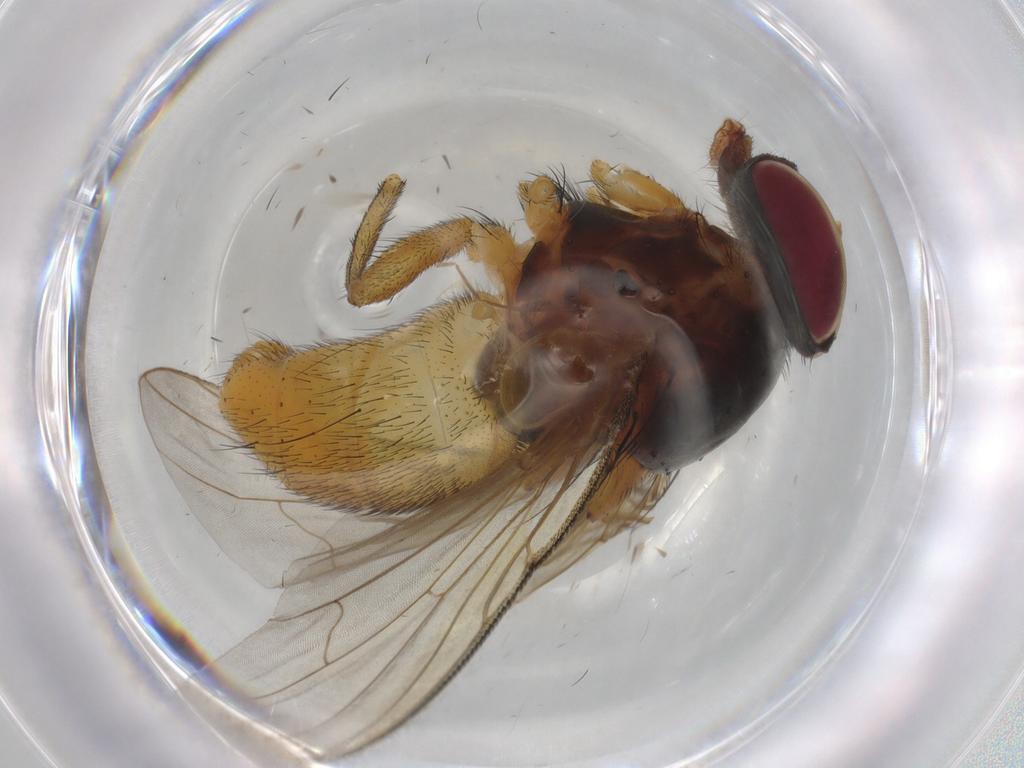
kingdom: Animalia
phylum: Arthropoda
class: Insecta
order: Diptera
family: Muscidae
